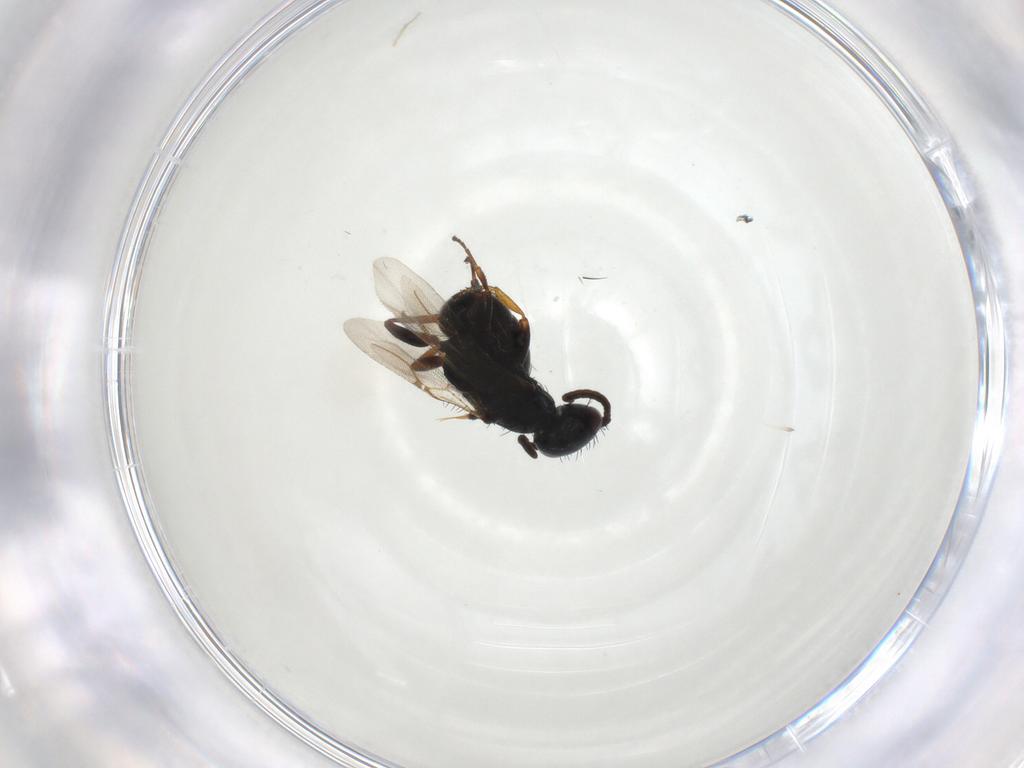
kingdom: Animalia
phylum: Arthropoda
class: Insecta
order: Hymenoptera
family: Bethylidae
